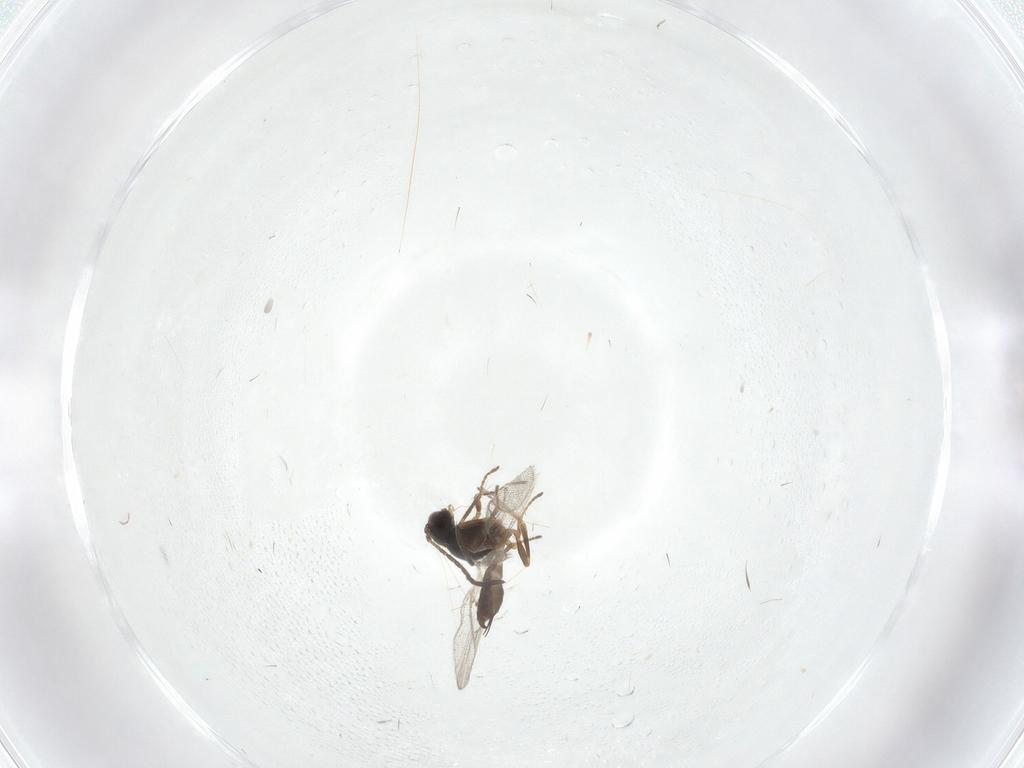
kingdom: Animalia
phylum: Arthropoda
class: Insecta
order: Hymenoptera
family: Braconidae
